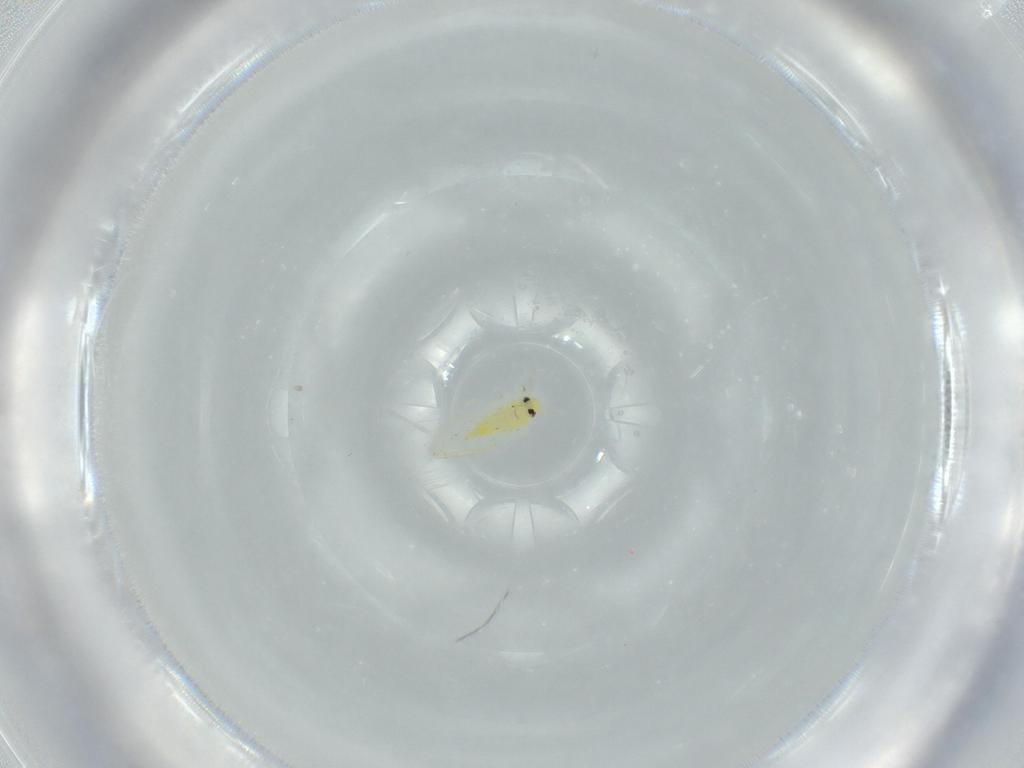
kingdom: Animalia
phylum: Arthropoda
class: Insecta
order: Hemiptera
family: Aleyrodidae
